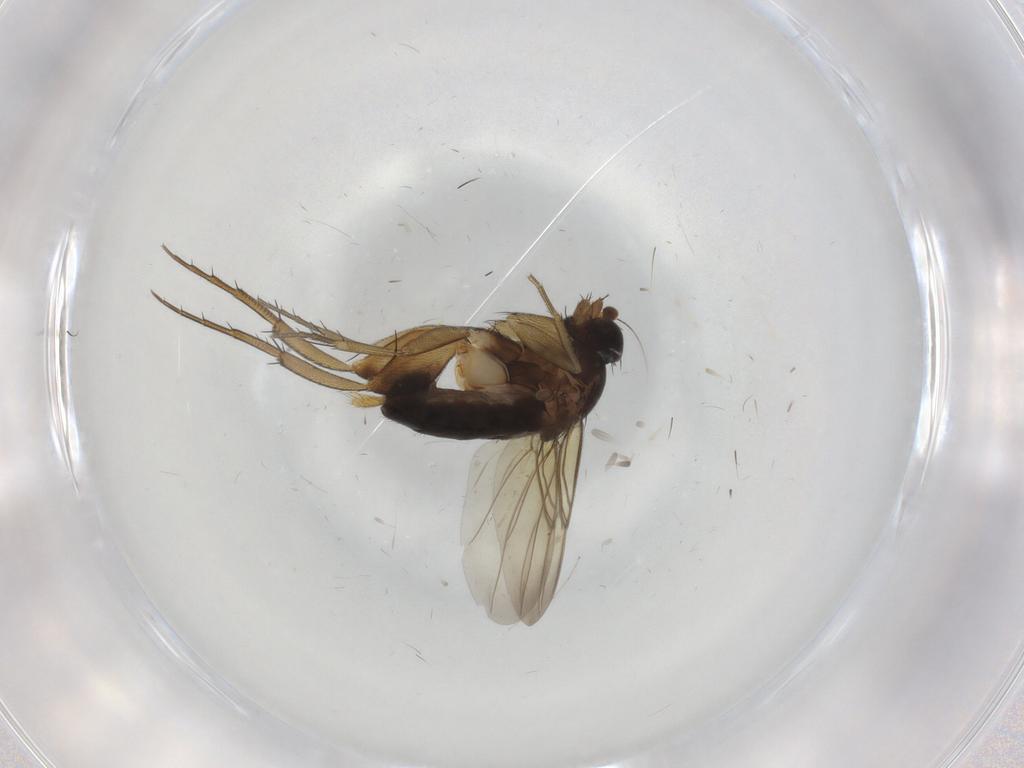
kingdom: Animalia
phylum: Arthropoda
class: Insecta
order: Diptera
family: Phoridae
